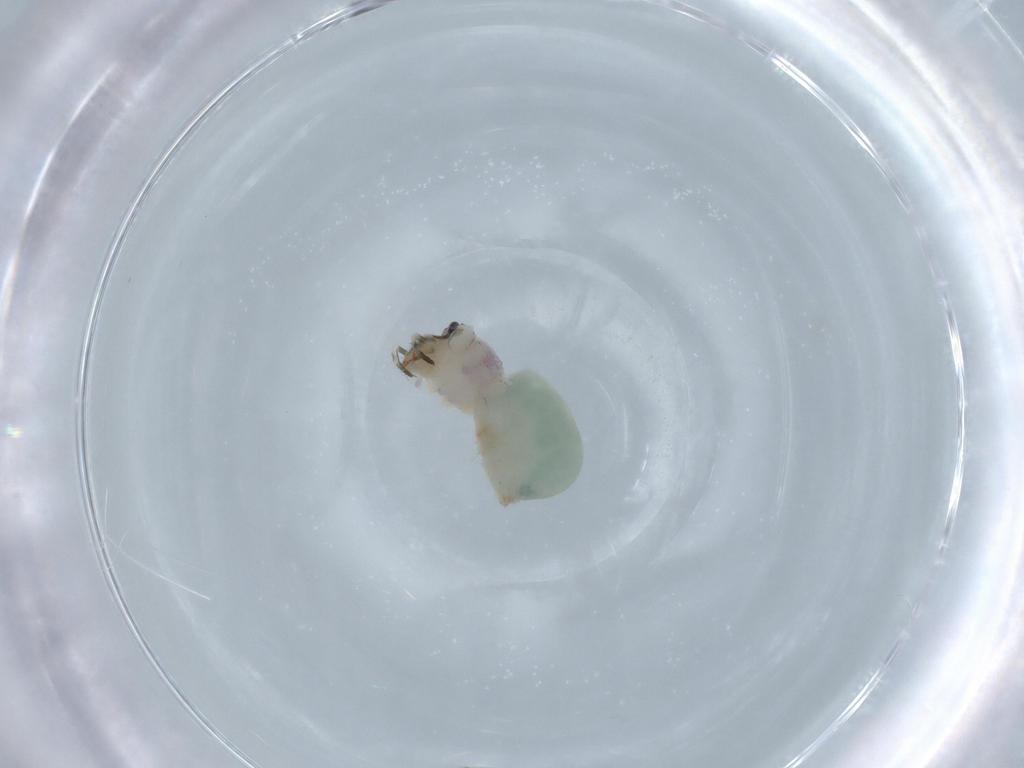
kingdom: Animalia
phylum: Arthropoda
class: Arachnida
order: Araneae
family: Pholcidae
